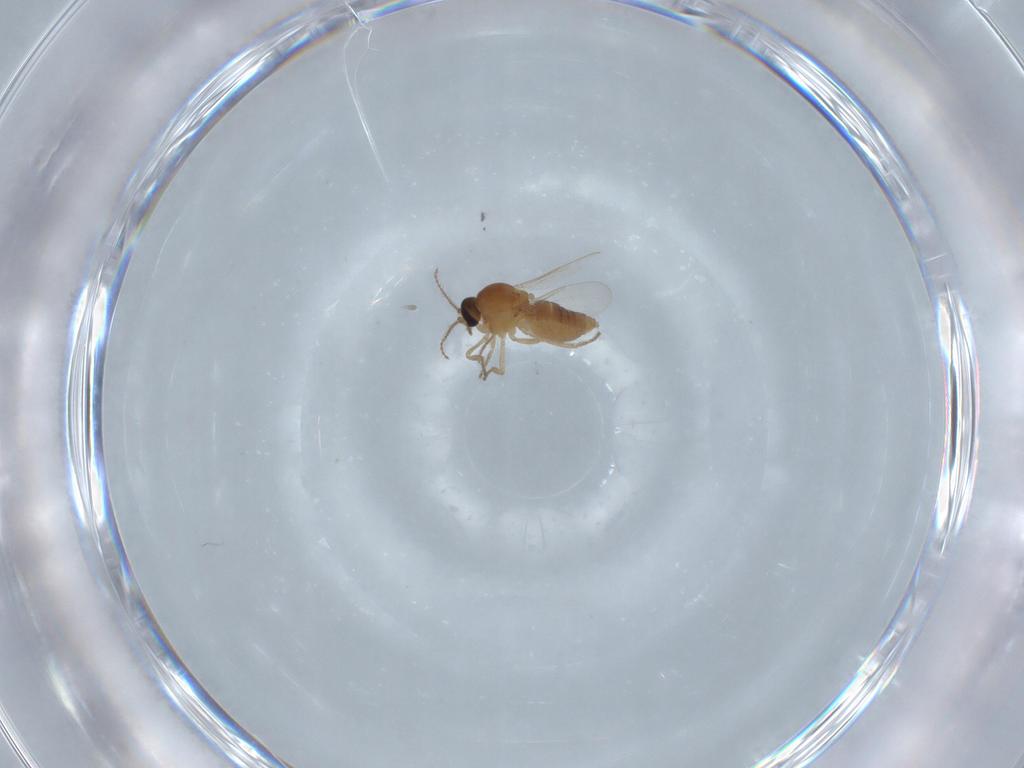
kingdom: Animalia
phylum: Arthropoda
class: Insecta
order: Diptera
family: Ceratopogonidae
